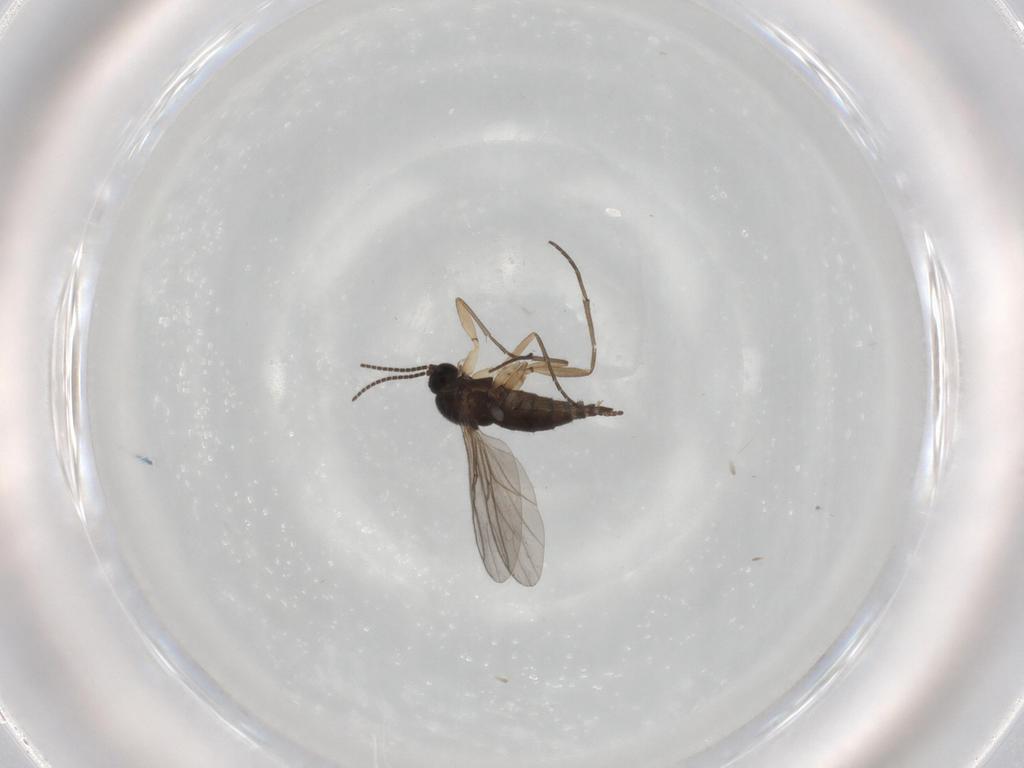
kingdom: Animalia
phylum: Arthropoda
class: Insecta
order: Diptera
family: Sciaridae
